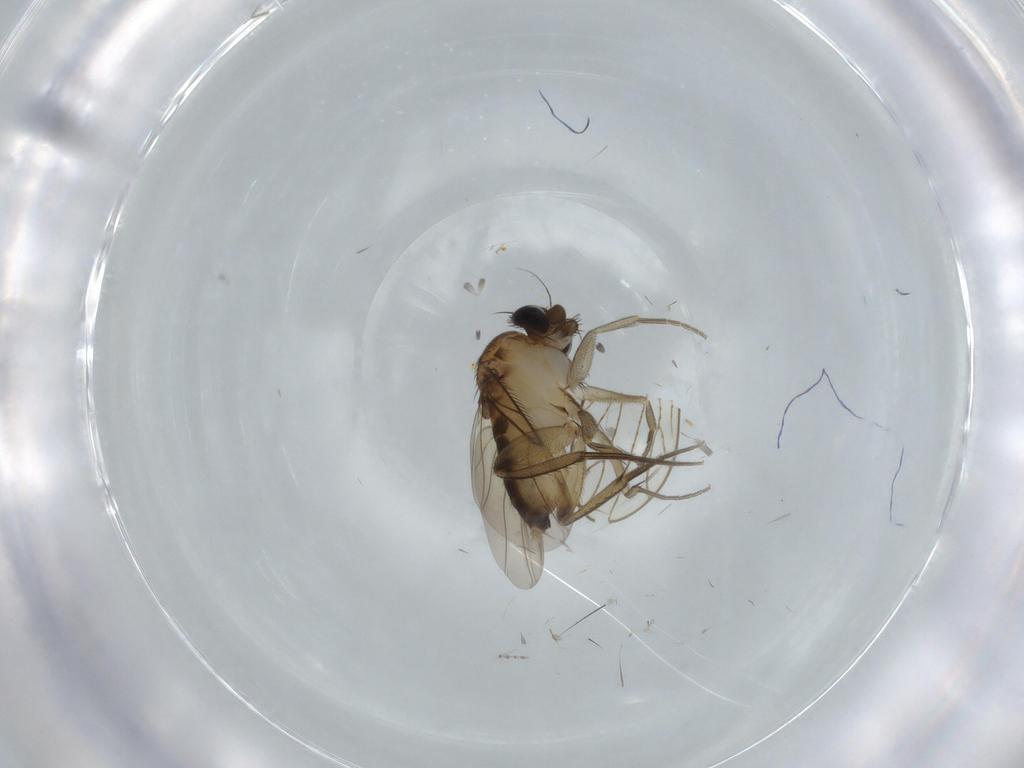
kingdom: Animalia
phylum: Arthropoda
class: Insecta
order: Diptera
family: Phoridae
